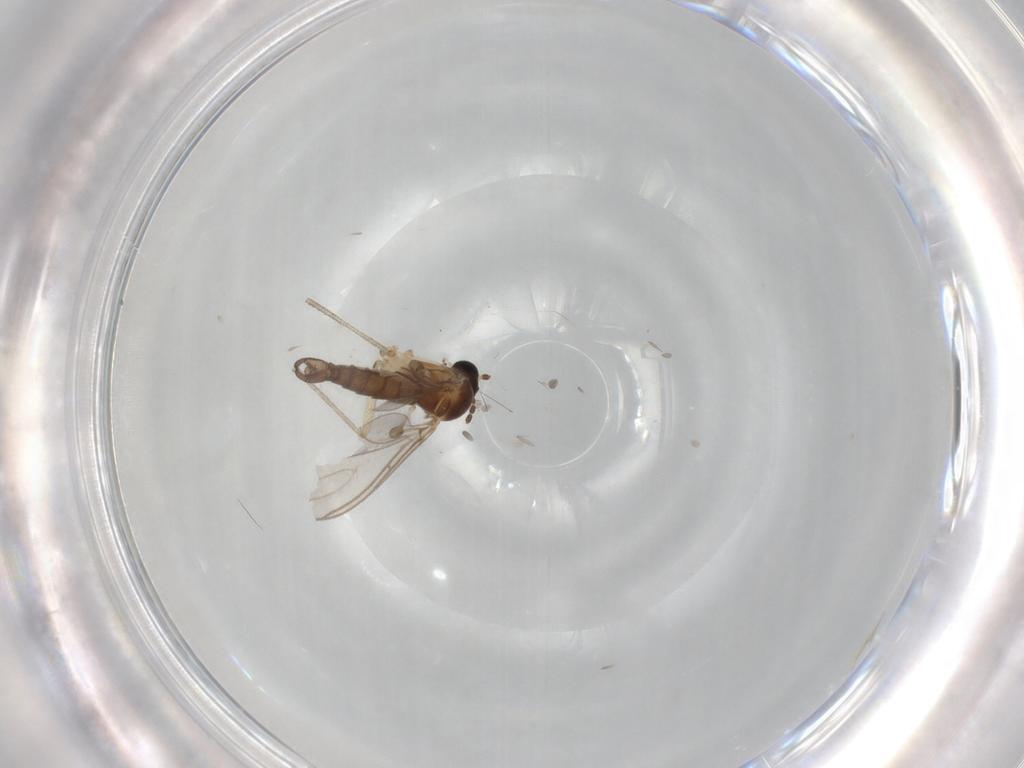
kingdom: Animalia
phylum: Arthropoda
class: Insecta
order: Diptera
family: Sciaridae
